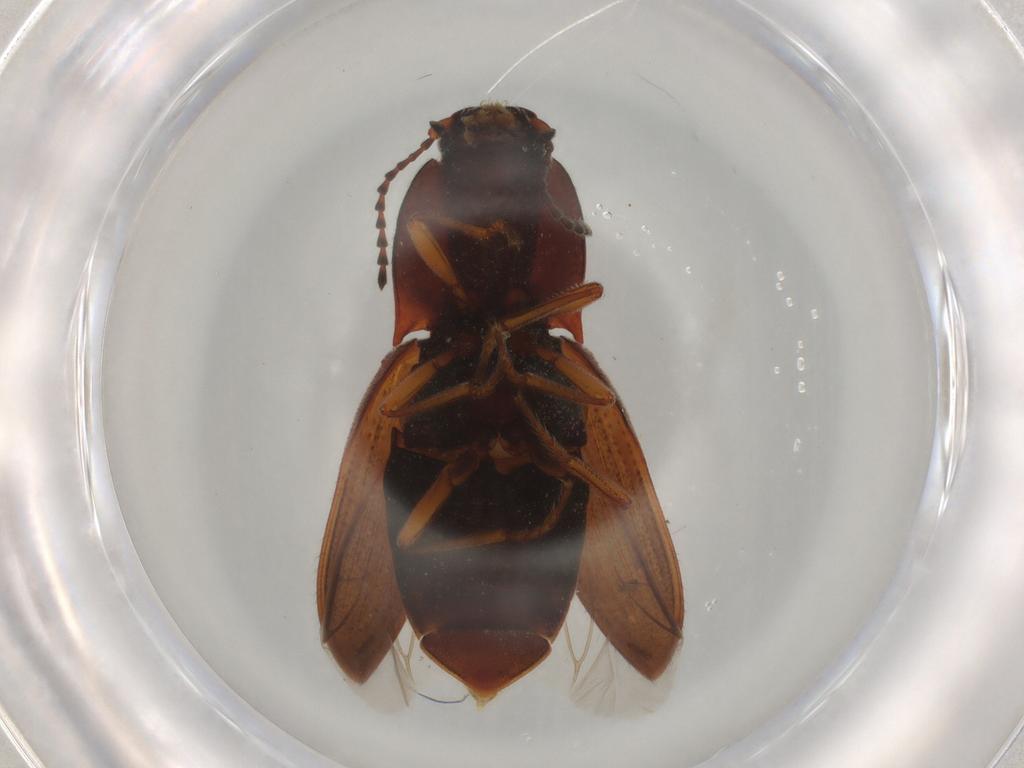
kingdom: Animalia
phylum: Arthropoda
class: Insecta
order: Coleoptera
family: Elateridae
